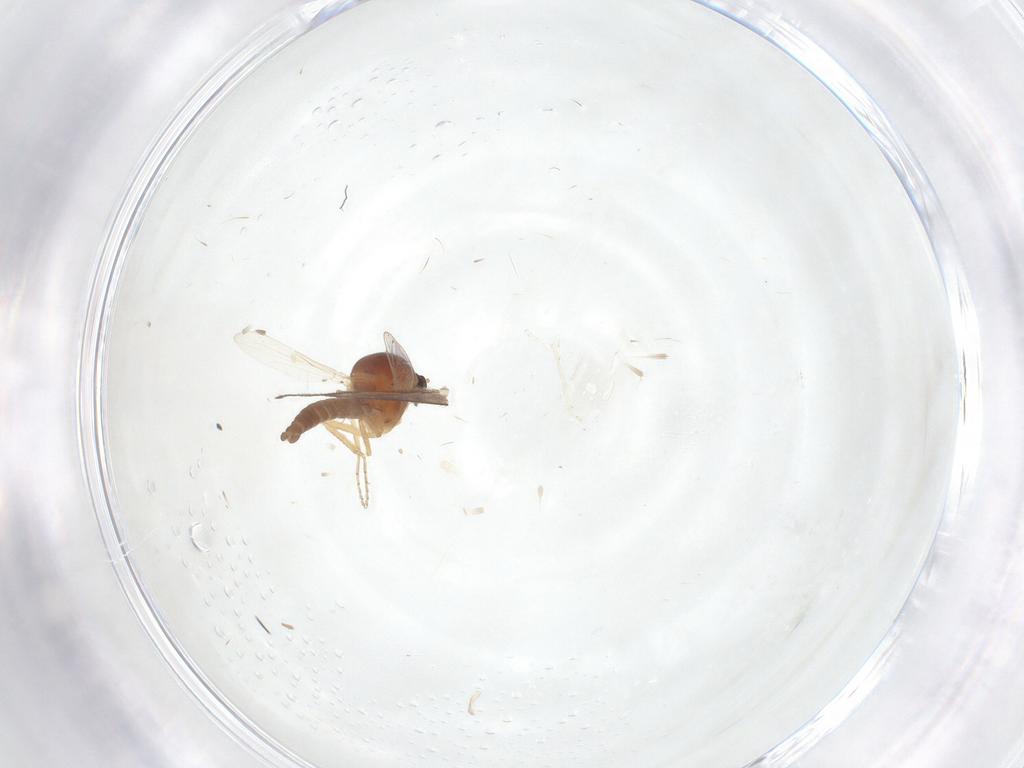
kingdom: Animalia
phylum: Arthropoda
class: Insecta
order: Diptera
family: Sciaridae
